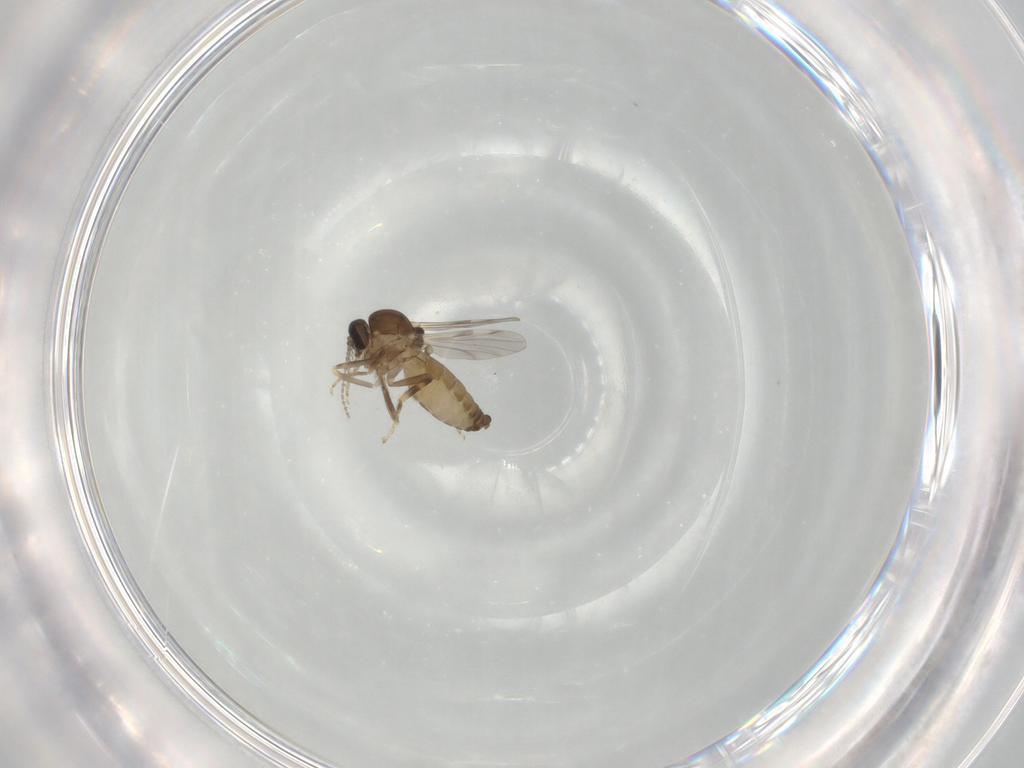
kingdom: Animalia
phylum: Arthropoda
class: Insecta
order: Diptera
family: Ceratopogonidae
